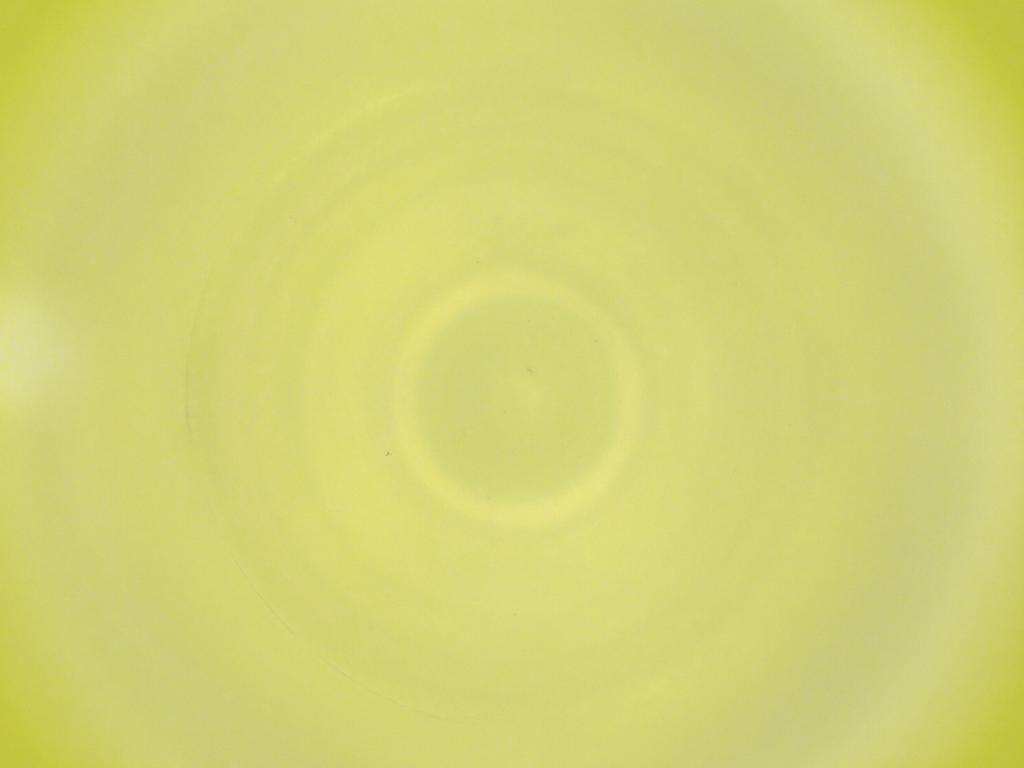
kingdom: Animalia
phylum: Arthropoda
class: Insecta
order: Diptera
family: Cecidomyiidae
